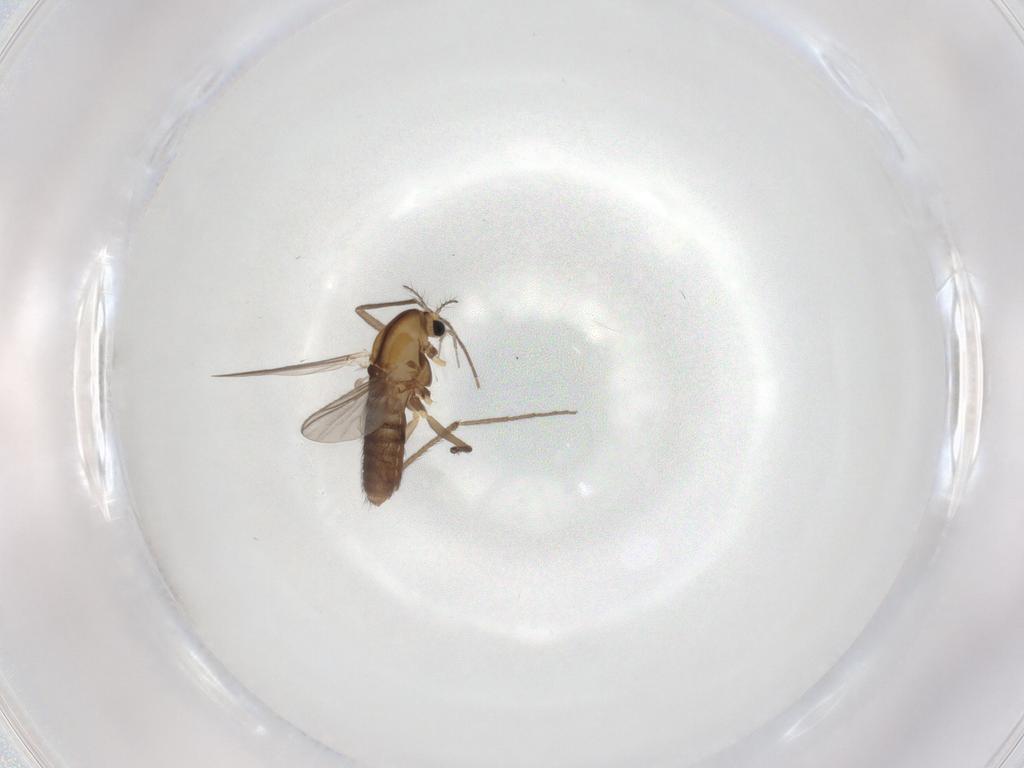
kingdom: Animalia
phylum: Arthropoda
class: Insecta
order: Diptera
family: Chironomidae
